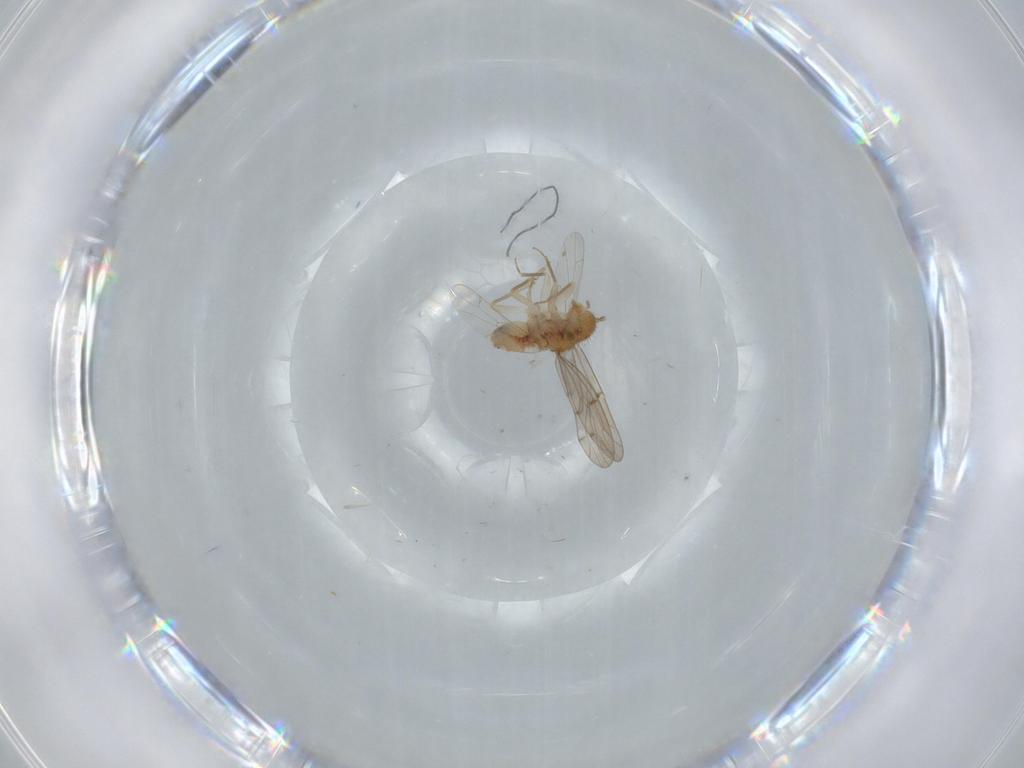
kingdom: Animalia
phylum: Arthropoda
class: Insecta
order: Psocodea
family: Ectopsocidae
